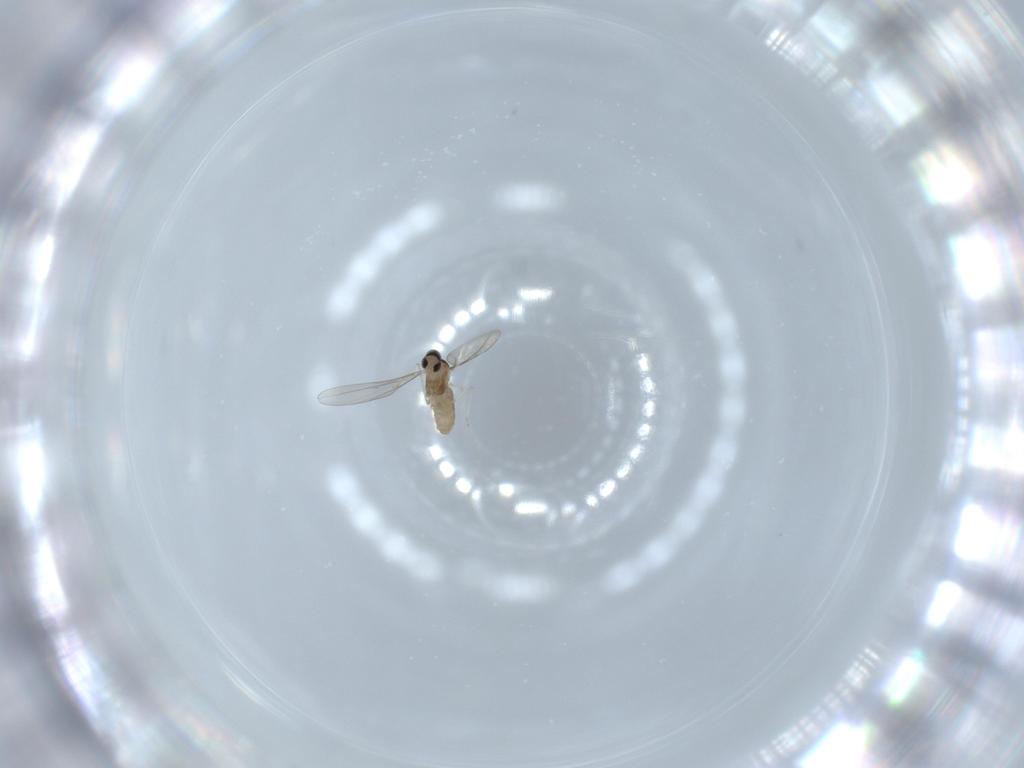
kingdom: Animalia
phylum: Arthropoda
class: Insecta
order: Diptera
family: Cecidomyiidae
